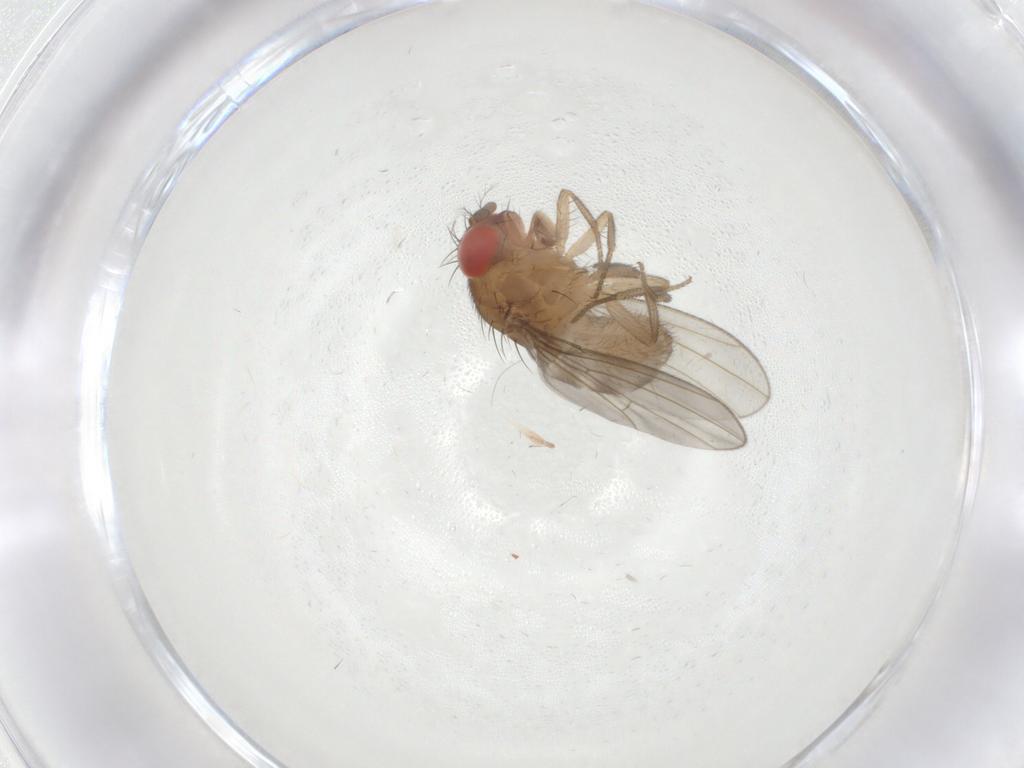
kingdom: Animalia
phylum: Arthropoda
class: Insecta
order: Diptera
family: Drosophilidae
